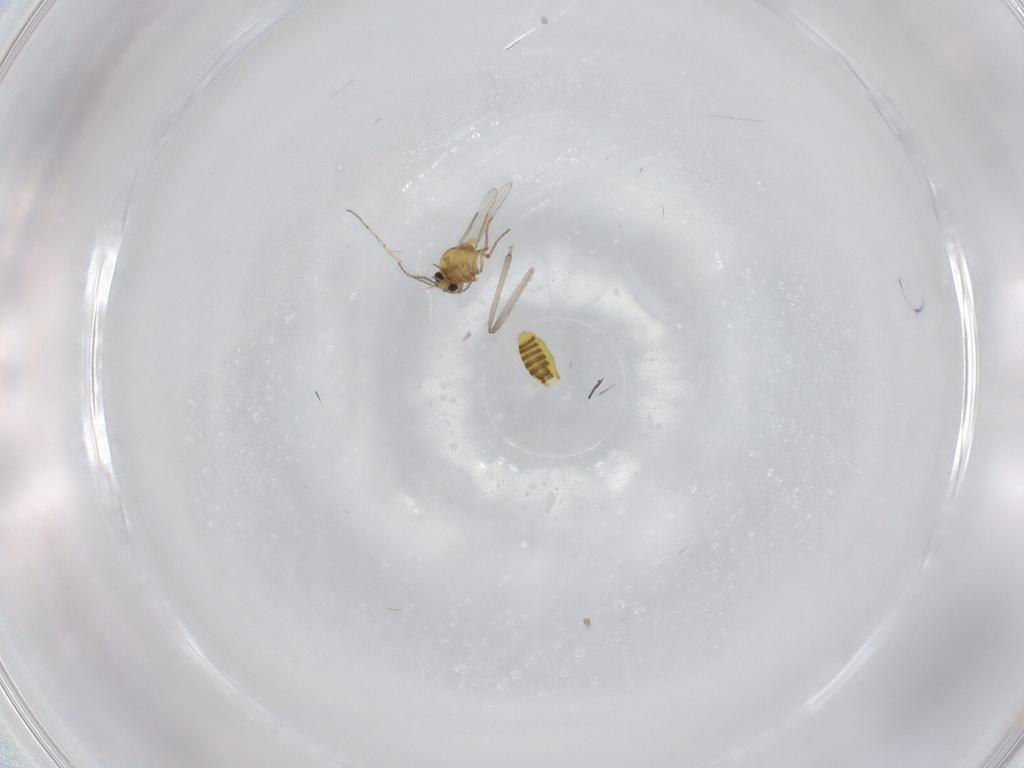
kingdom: Animalia
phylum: Arthropoda
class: Insecta
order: Diptera
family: Ceratopogonidae
